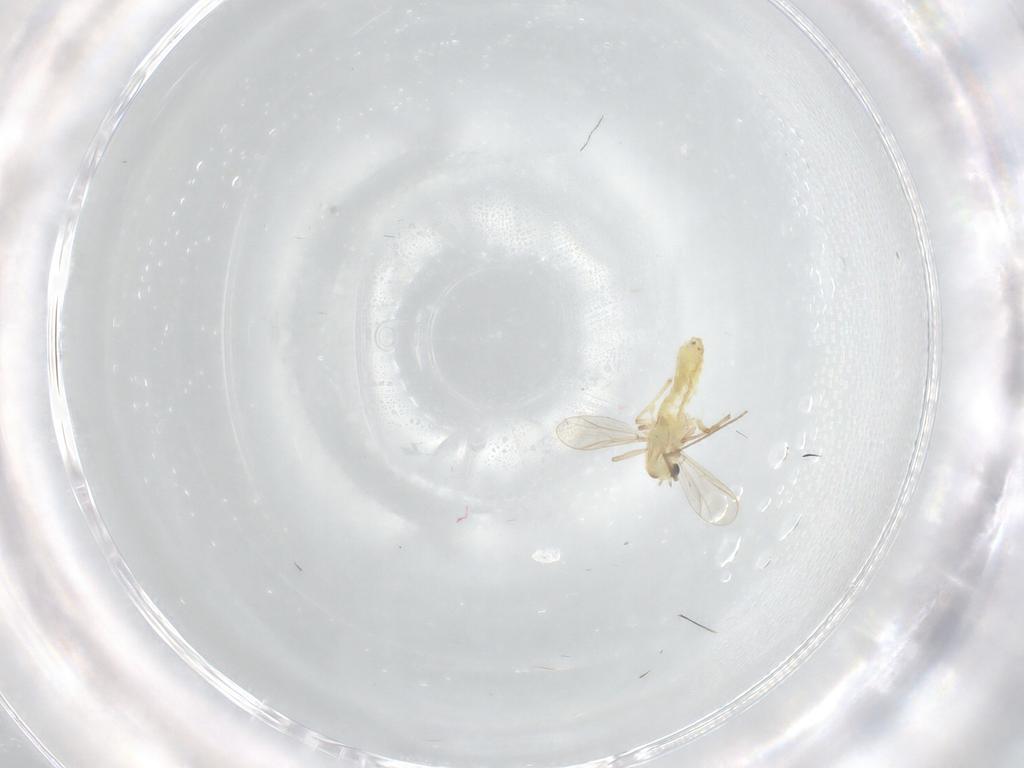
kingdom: Animalia
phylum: Arthropoda
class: Insecta
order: Diptera
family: Chironomidae
